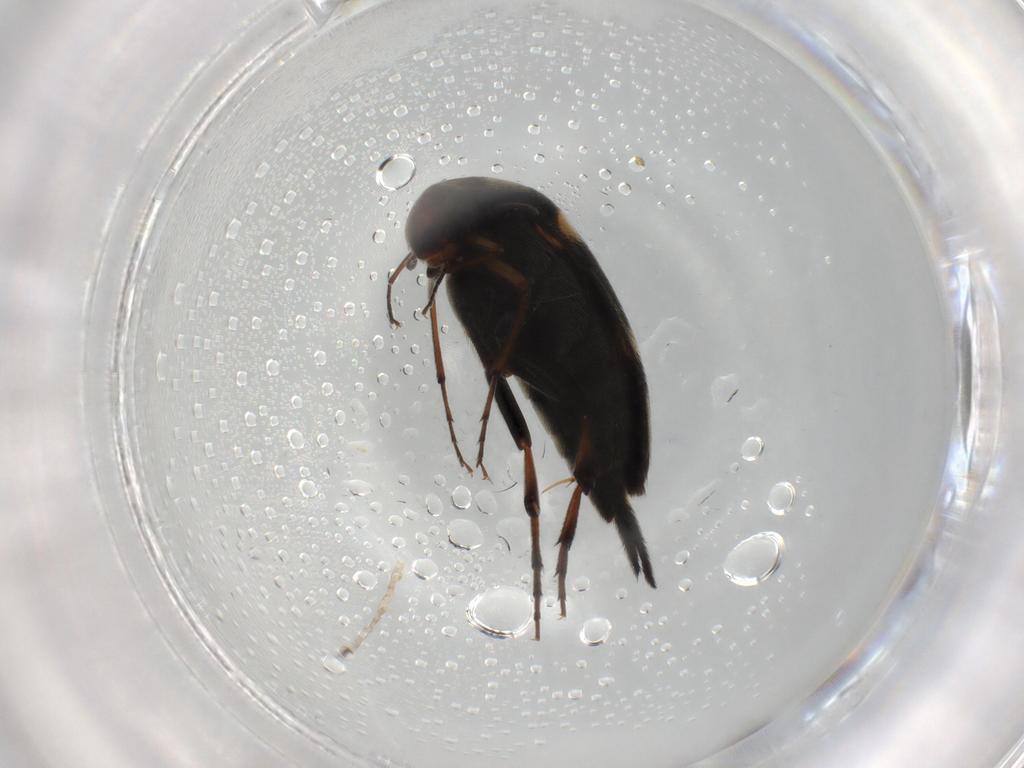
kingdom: Animalia
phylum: Arthropoda
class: Insecta
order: Coleoptera
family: Mordellidae
